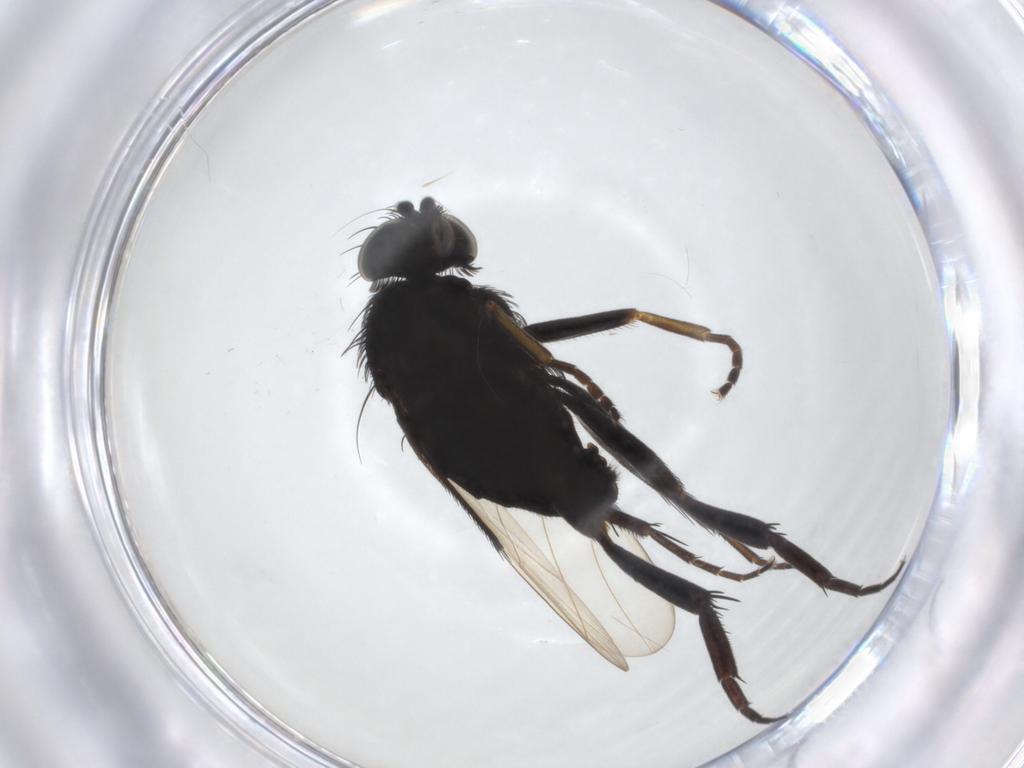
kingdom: Animalia
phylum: Arthropoda
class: Insecta
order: Diptera
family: Phoridae
